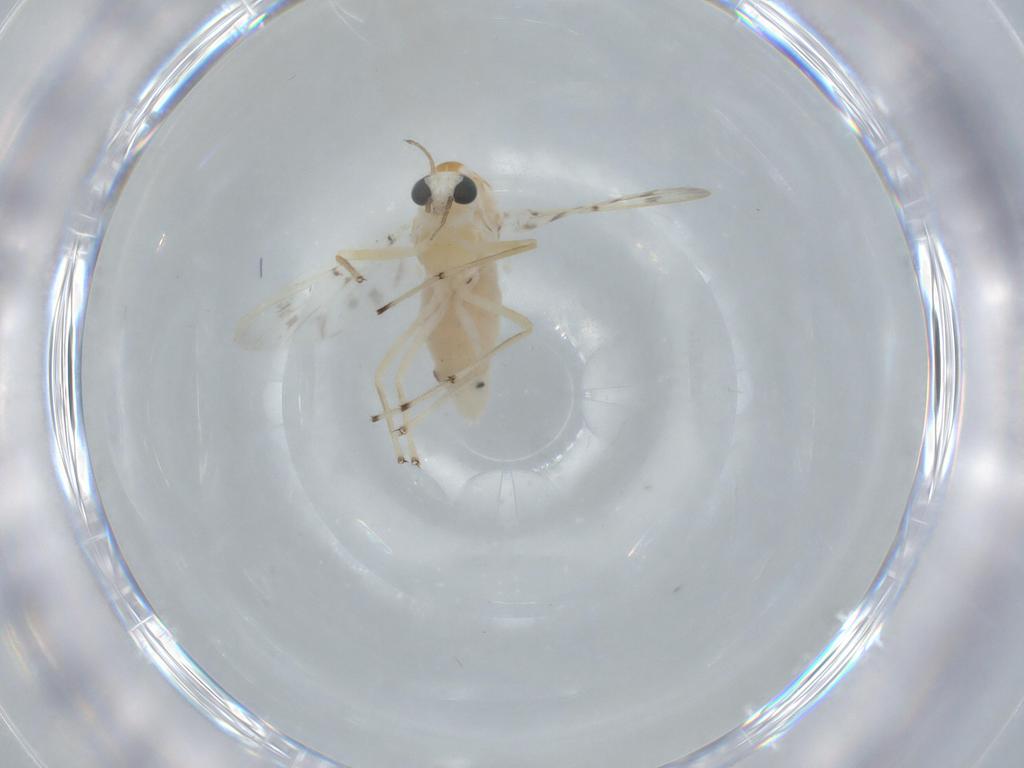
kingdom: Animalia
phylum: Arthropoda
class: Insecta
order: Diptera
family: Chironomidae
